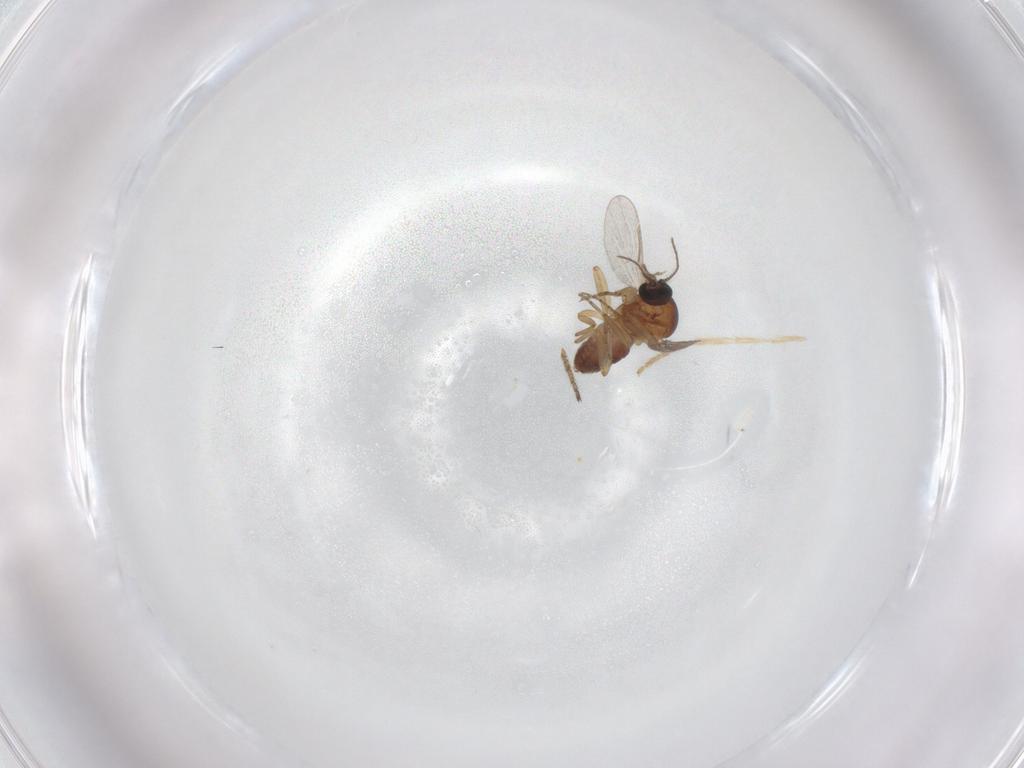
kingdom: Animalia
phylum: Arthropoda
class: Insecta
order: Diptera
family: Ceratopogonidae
